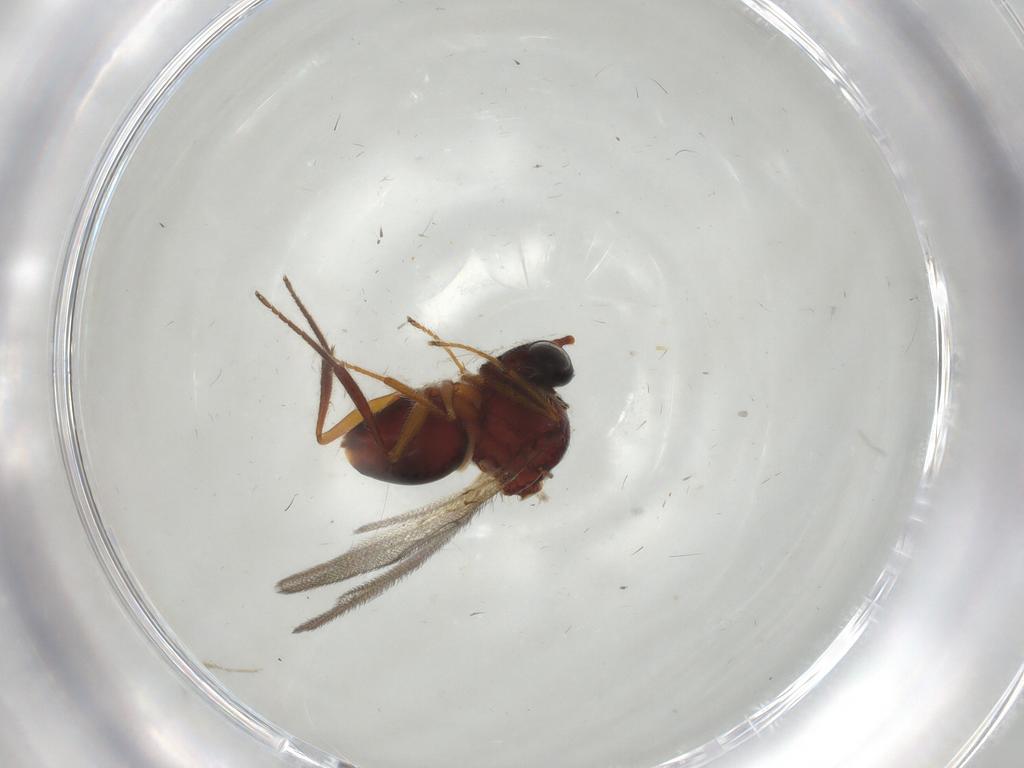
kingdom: Animalia
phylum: Arthropoda
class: Insecta
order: Hymenoptera
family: Figitidae
